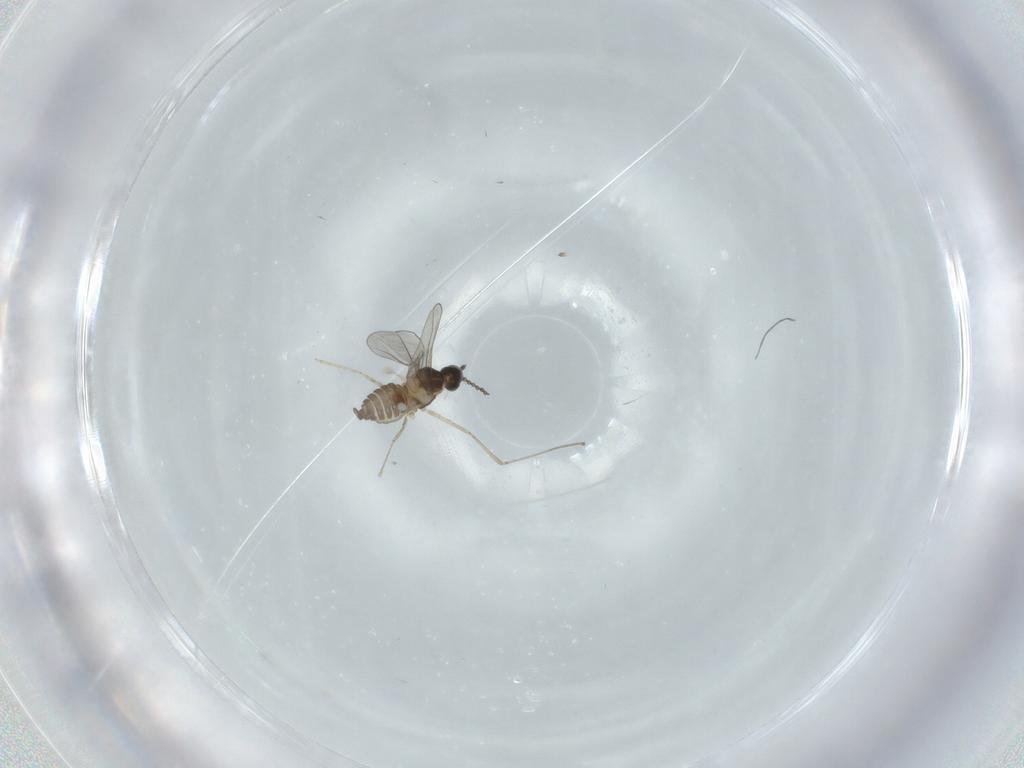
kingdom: Animalia
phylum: Arthropoda
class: Insecta
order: Diptera
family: Cecidomyiidae
